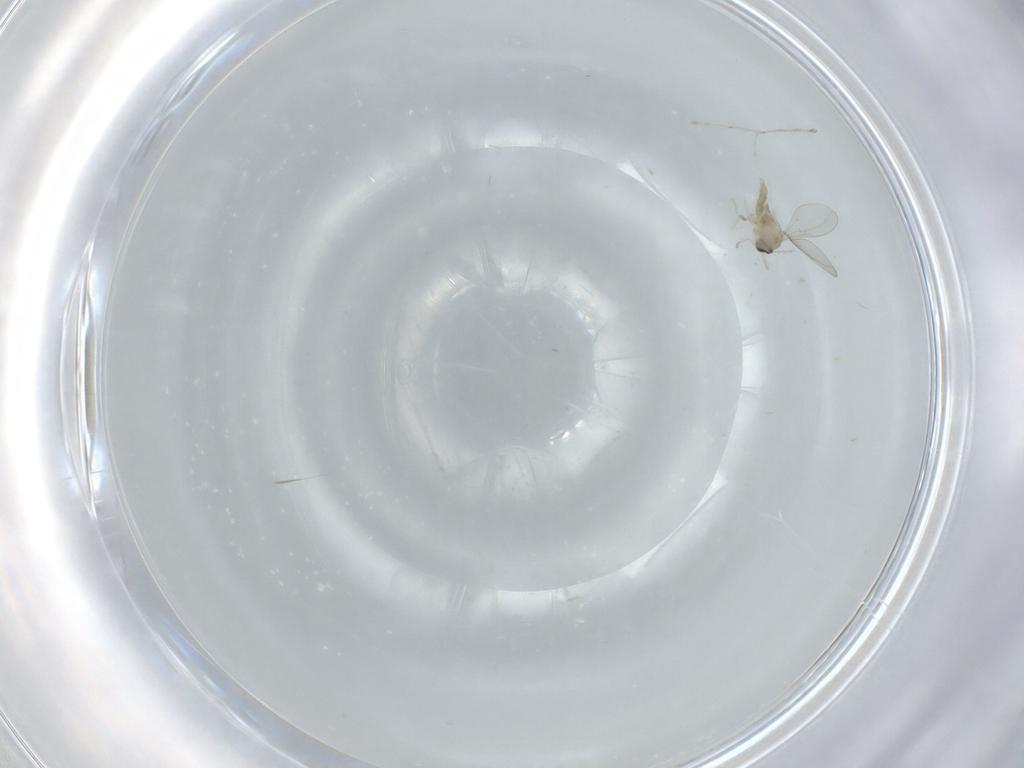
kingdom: Animalia
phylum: Arthropoda
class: Insecta
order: Diptera
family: Cecidomyiidae
